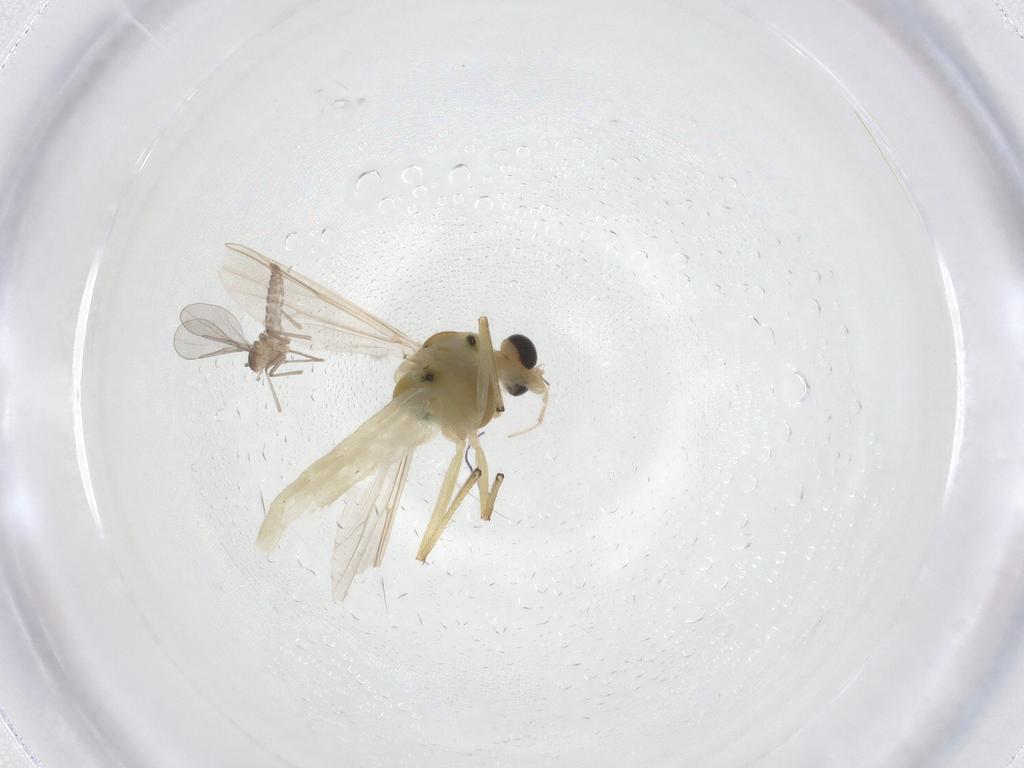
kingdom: Animalia
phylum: Arthropoda
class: Insecta
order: Diptera
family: Chironomidae
